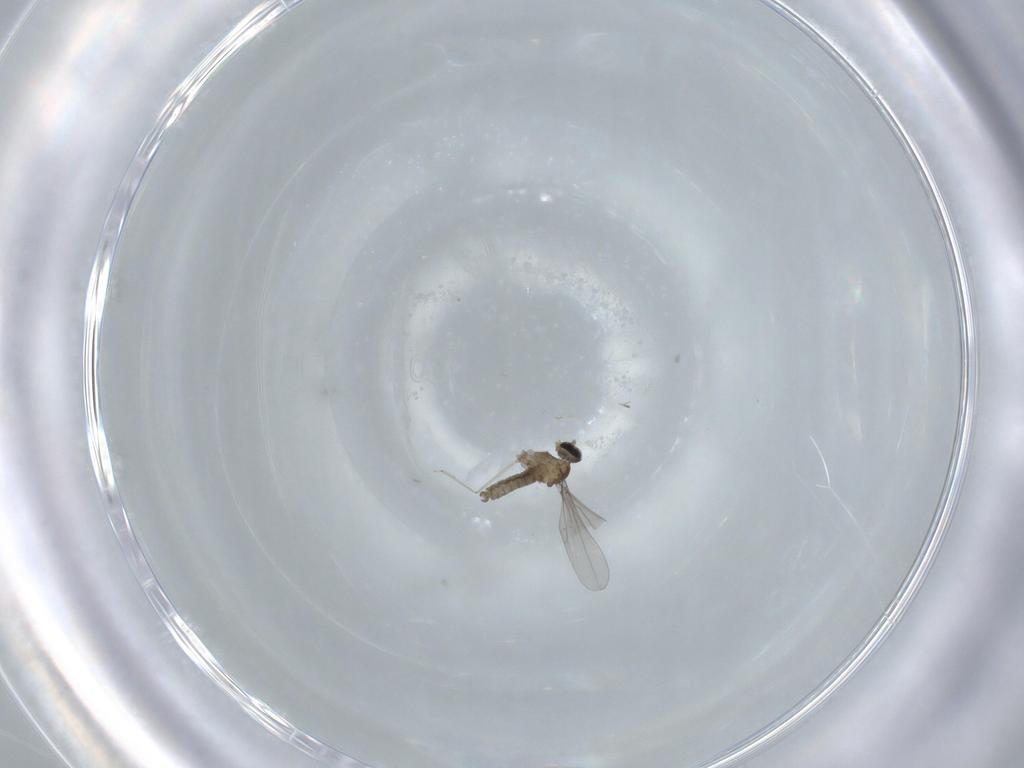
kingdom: Animalia
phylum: Arthropoda
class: Insecta
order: Diptera
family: Cecidomyiidae
